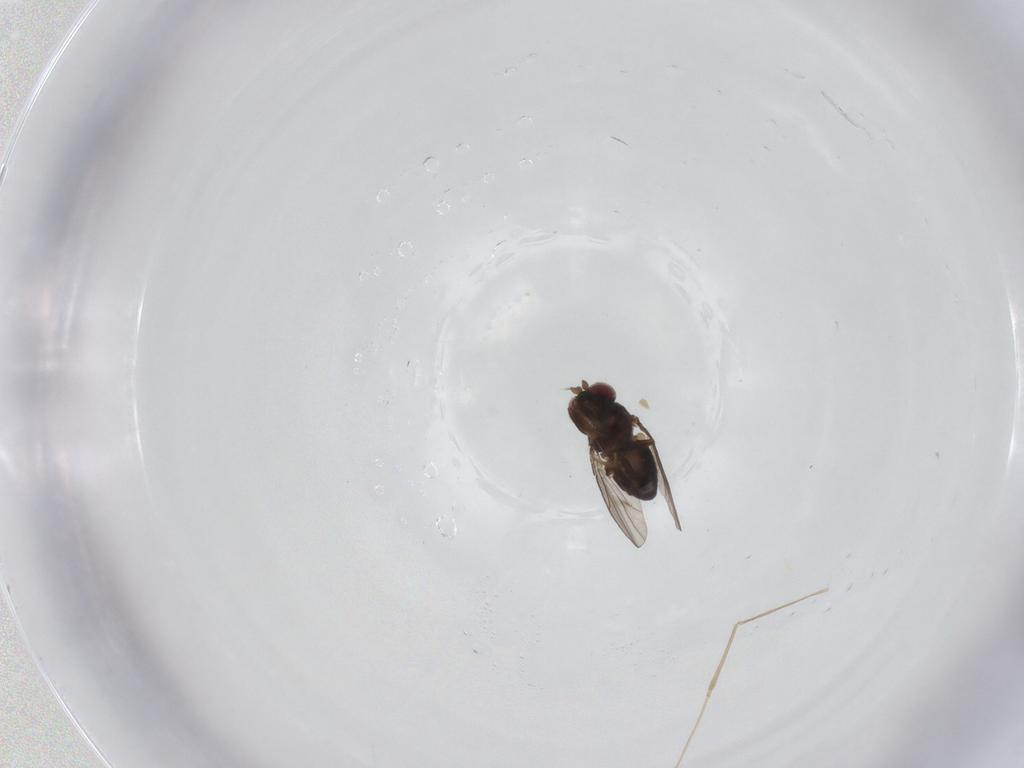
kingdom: Animalia
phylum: Arthropoda
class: Insecta
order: Diptera
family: Ephydridae
